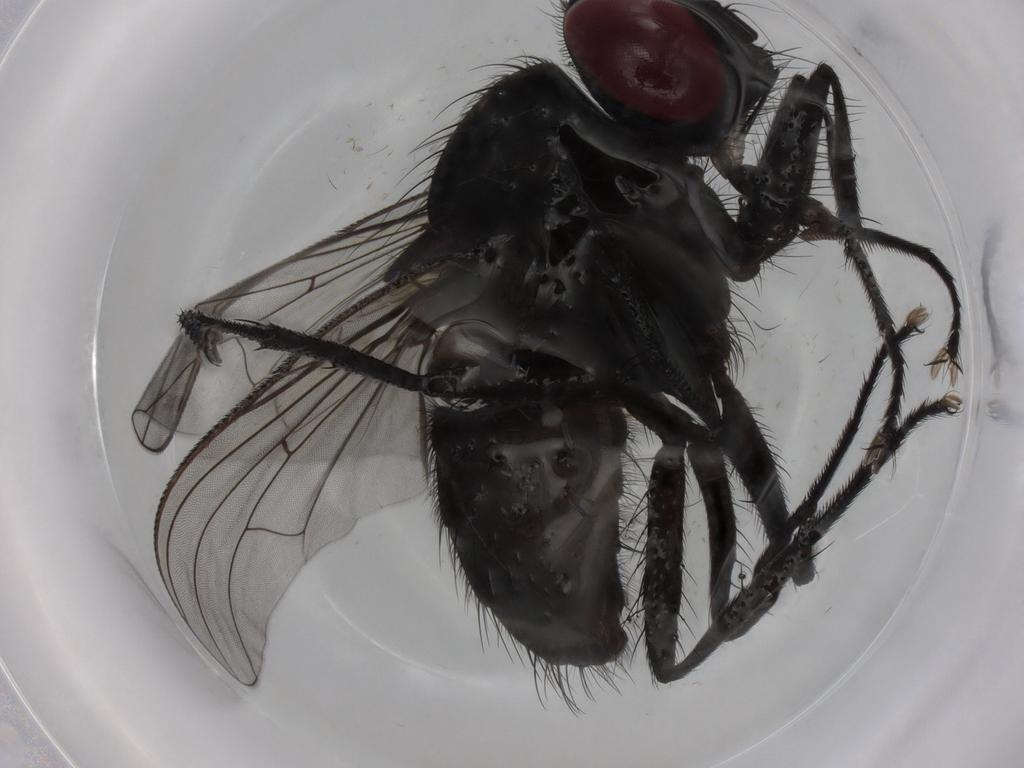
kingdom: Animalia
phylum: Arthropoda
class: Insecta
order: Diptera
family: Muscidae
